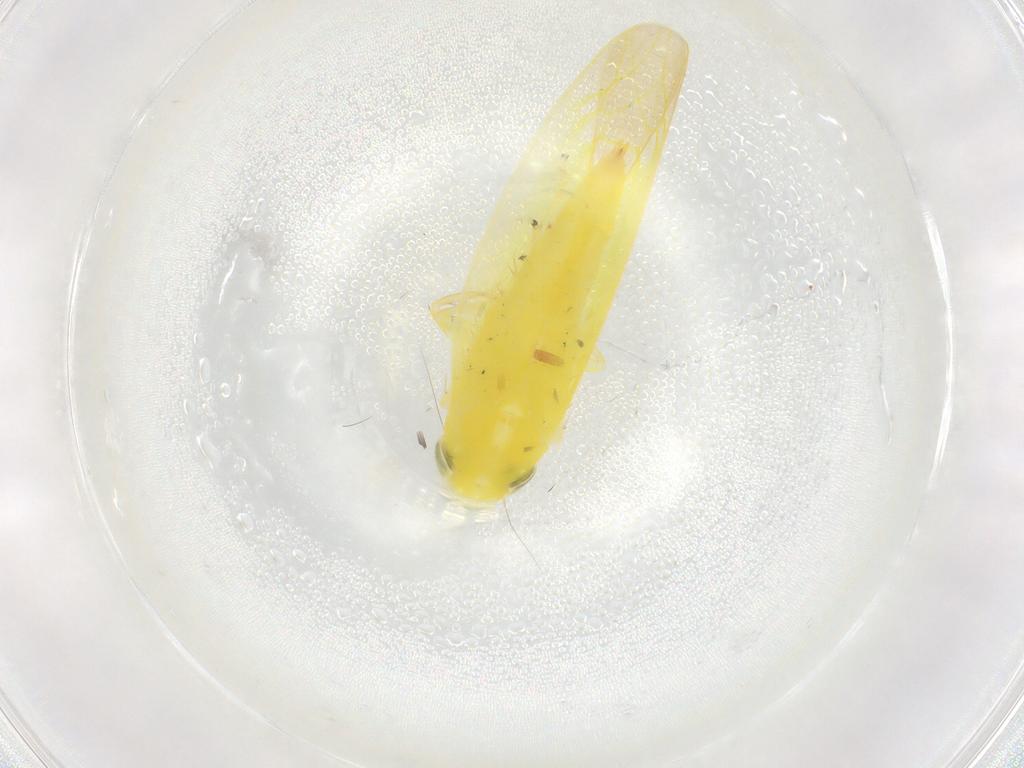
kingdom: Animalia
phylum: Arthropoda
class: Insecta
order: Hemiptera
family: Cicadellidae
